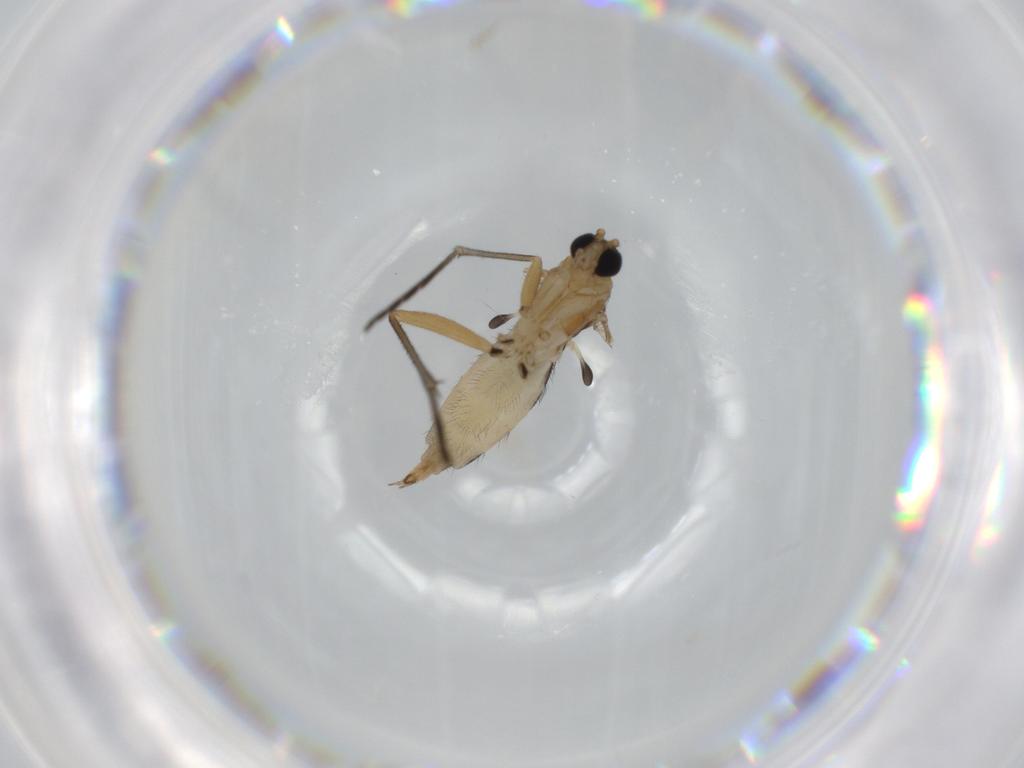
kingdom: Animalia
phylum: Arthropoda
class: Insecta
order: Diptera
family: Sciaridae
